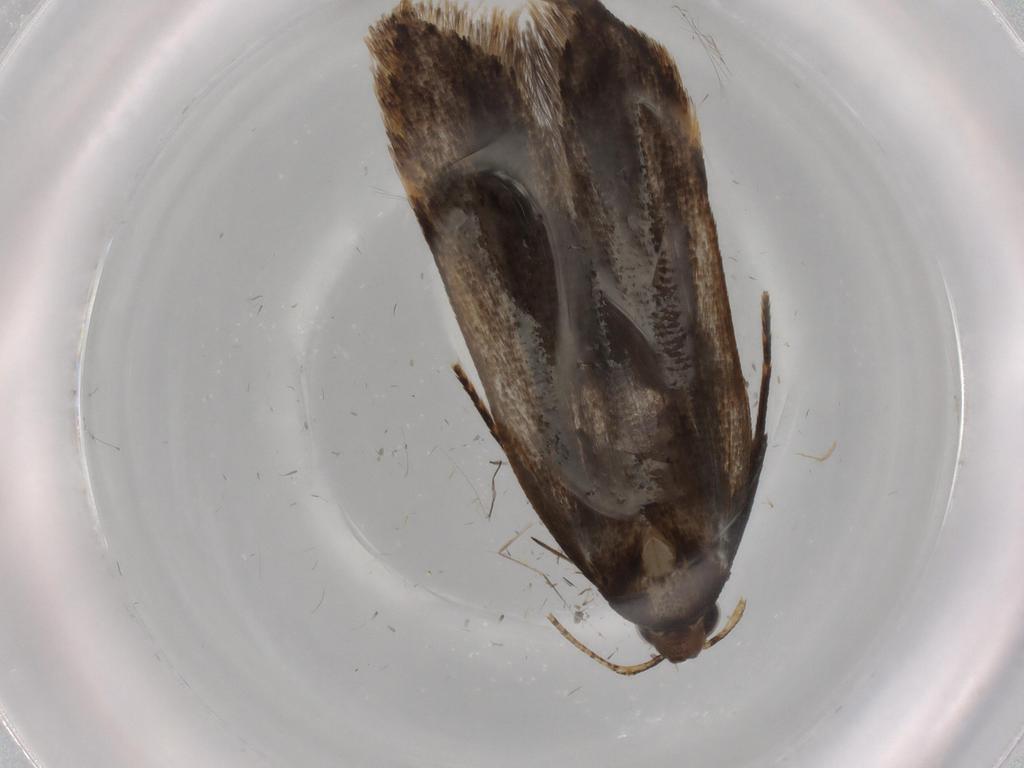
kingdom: Animalia
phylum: Arthropoda
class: Insecta
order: Lepidoptera
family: Gelechiidae
